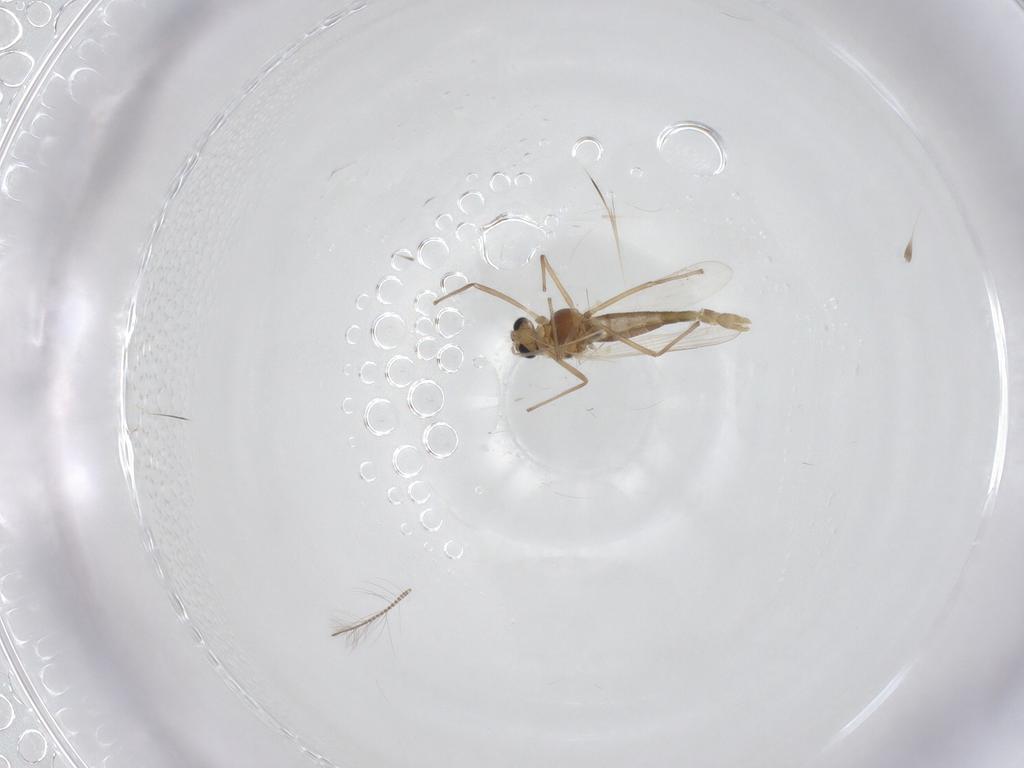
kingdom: Animalia
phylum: Arthropoda
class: Insecta
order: Diptera
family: Chironomidae
